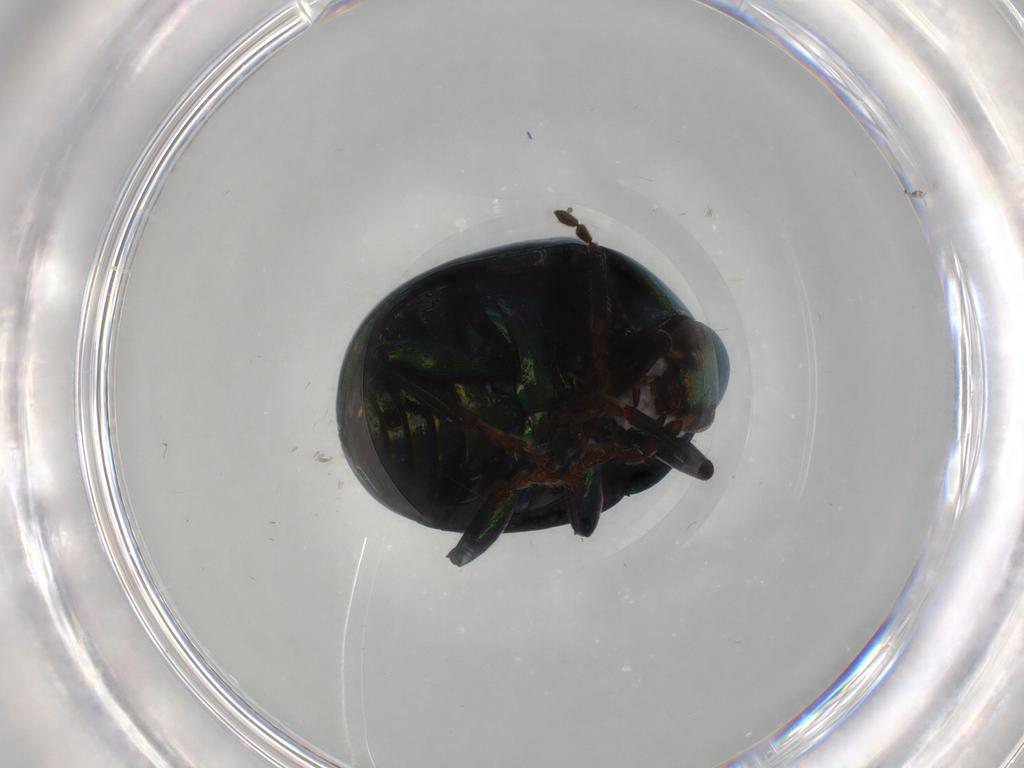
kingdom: Animalia
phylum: Arthropoda
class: Insecta
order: Coleoptera
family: Chrysomelidae
